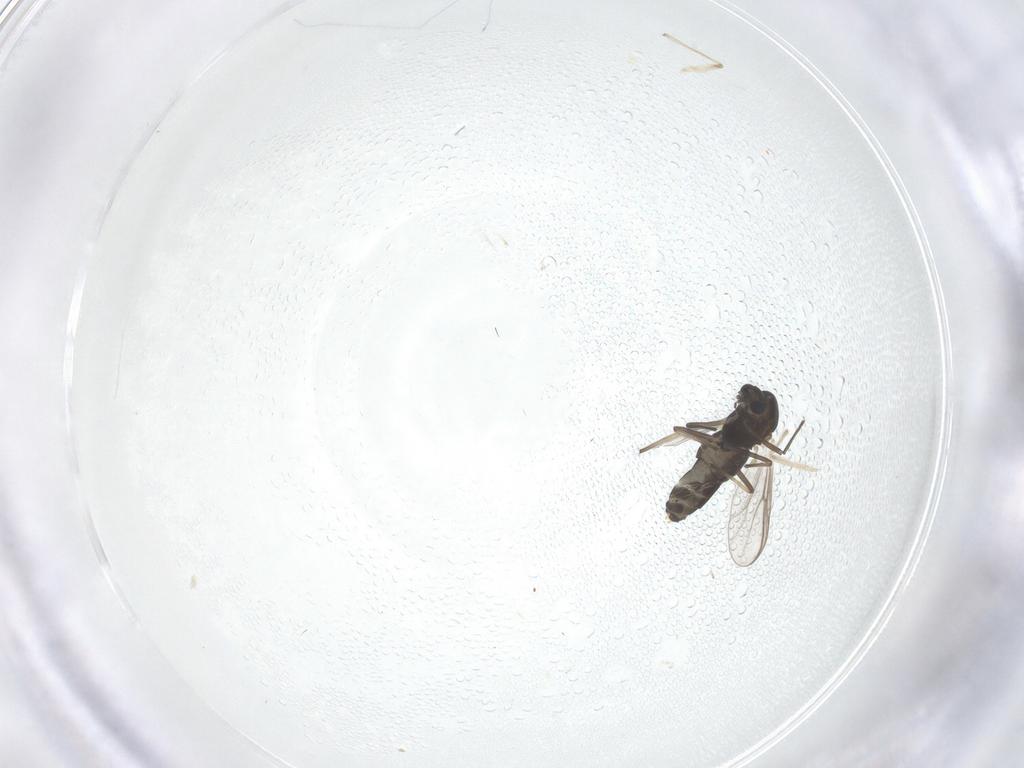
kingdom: Animalia
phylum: Arthropoda
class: Insecta
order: Diptera
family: Chironomidae
